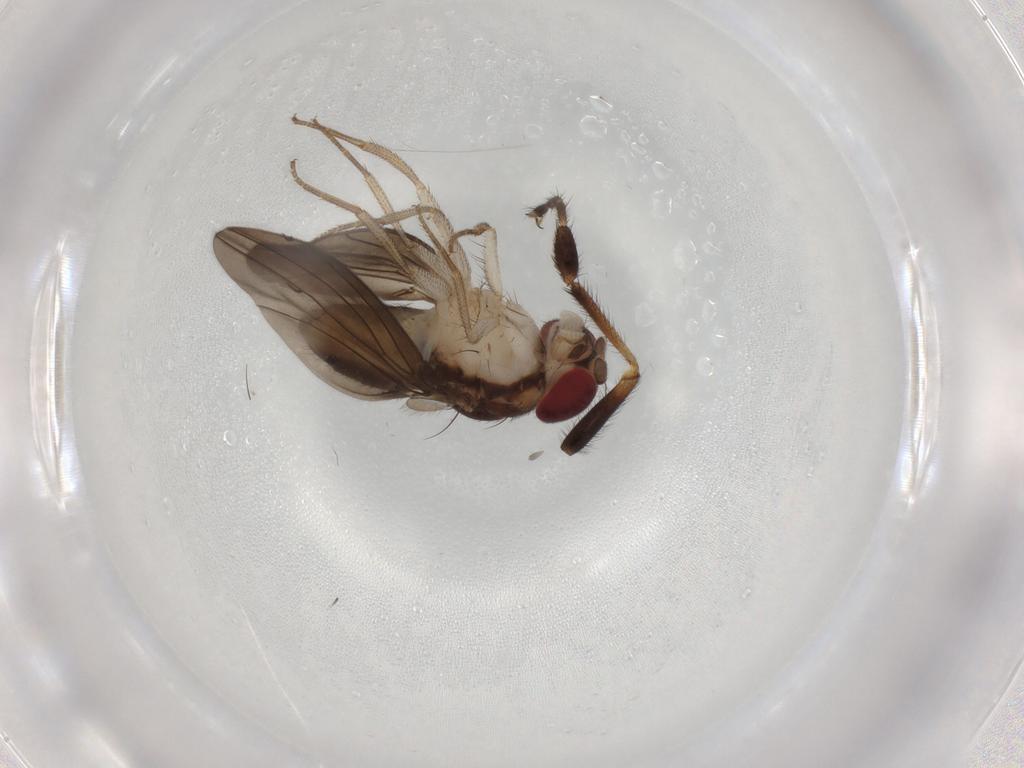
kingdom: Animalia
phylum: Arthropoda
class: Insecta
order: Diptera
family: Drosophilidae
